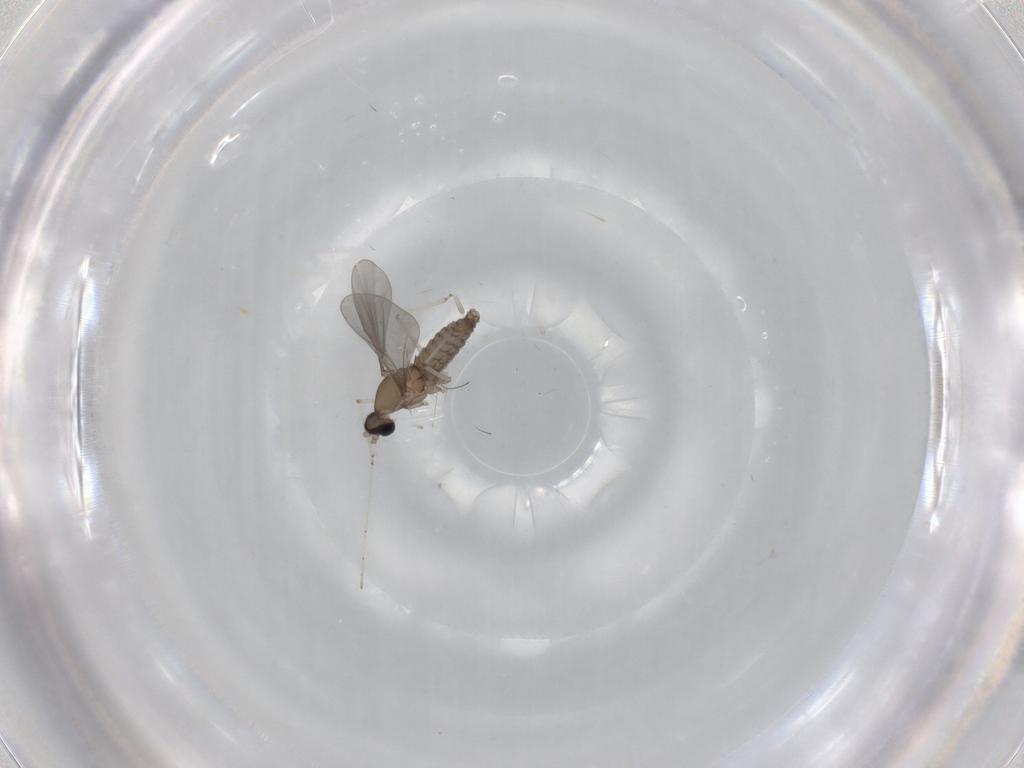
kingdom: Animalia
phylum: Arthropoda
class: Insecta
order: Diptera
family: Cecidomyiidae
